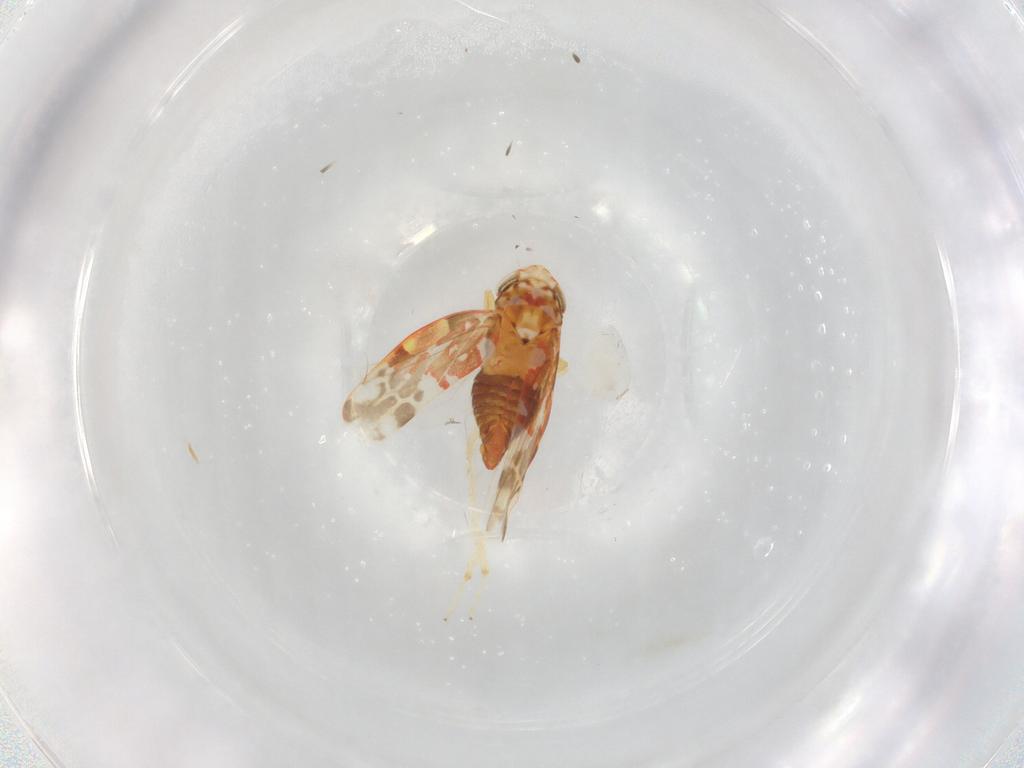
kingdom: Animalia
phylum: Arthropoda
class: Insecta
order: Hemiptera
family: Cicadellidae
